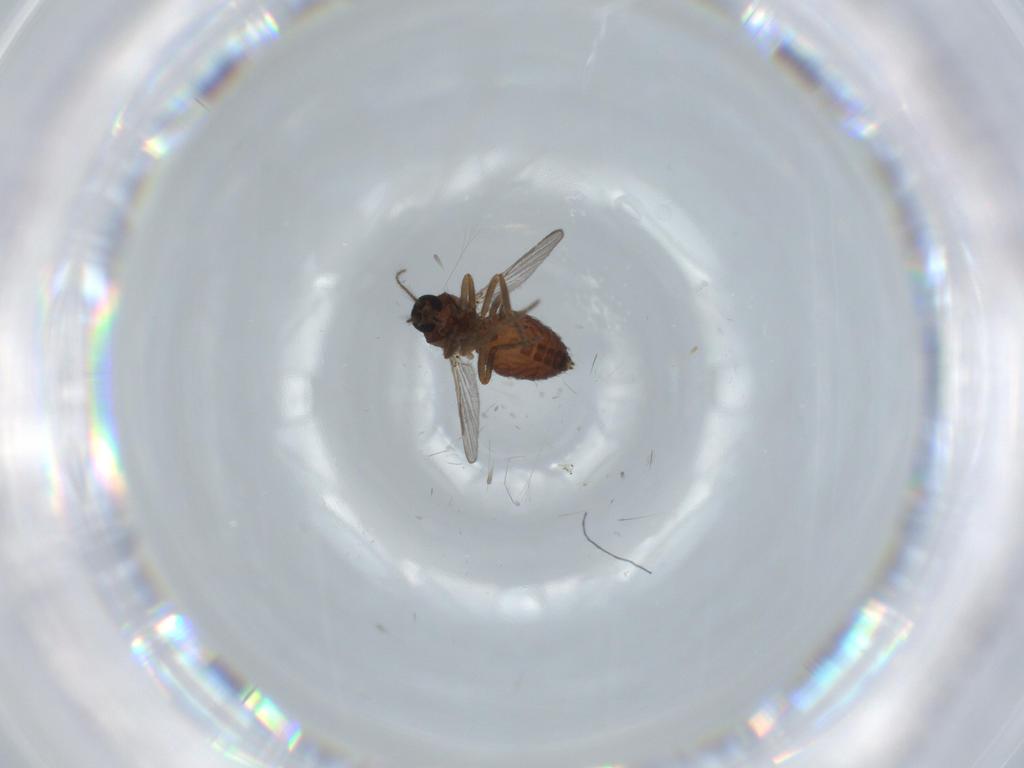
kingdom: Animalia
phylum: Arthropoda
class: Insecta
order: Diptera
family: Ceratopogonidae
